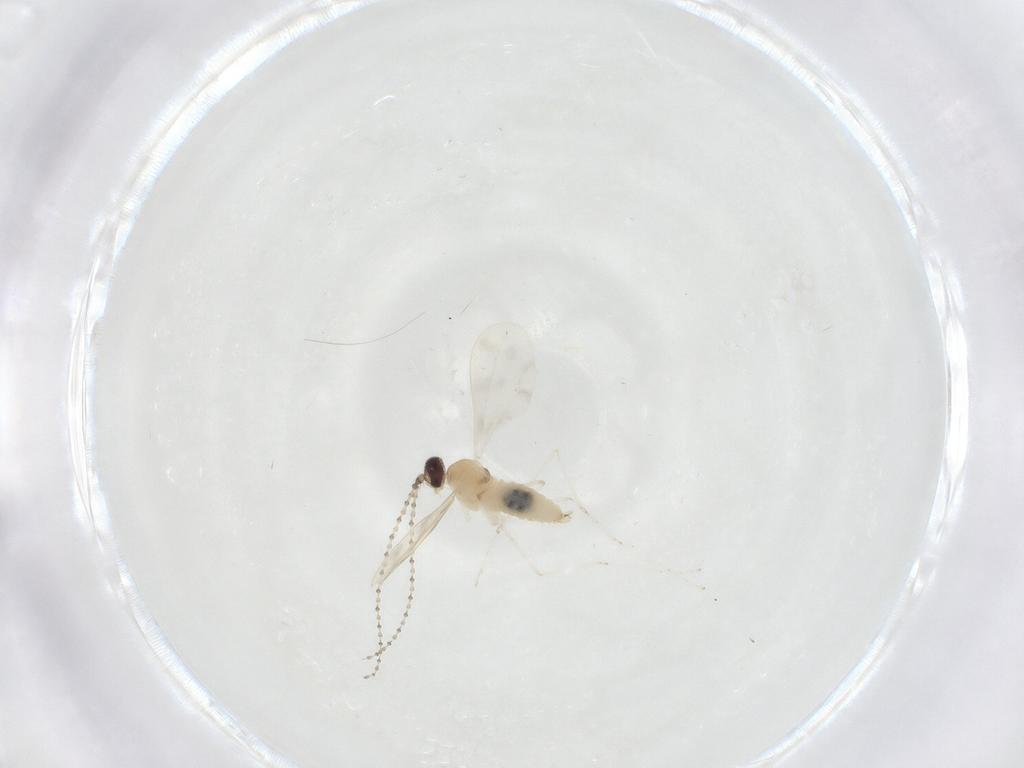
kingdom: Animalia
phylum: Arthropoda
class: Insecta
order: Diptera
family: Cecidomyiidae
